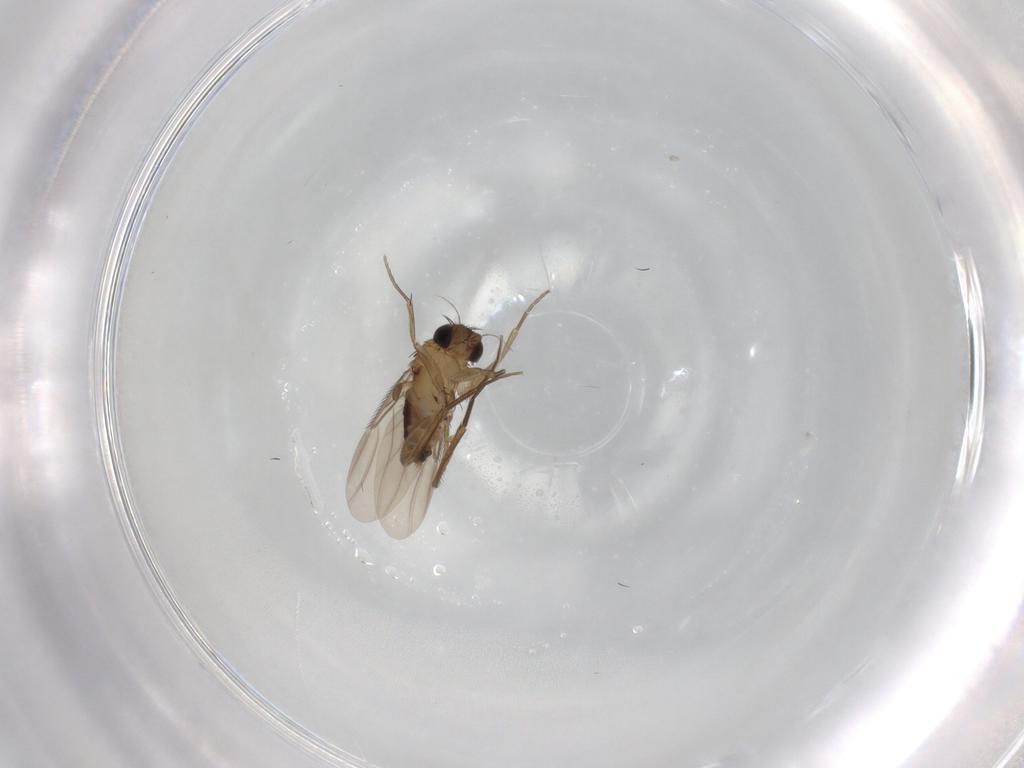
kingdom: Animalia
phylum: Arthropoda
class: Insecta
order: Diptera
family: Phoridae
